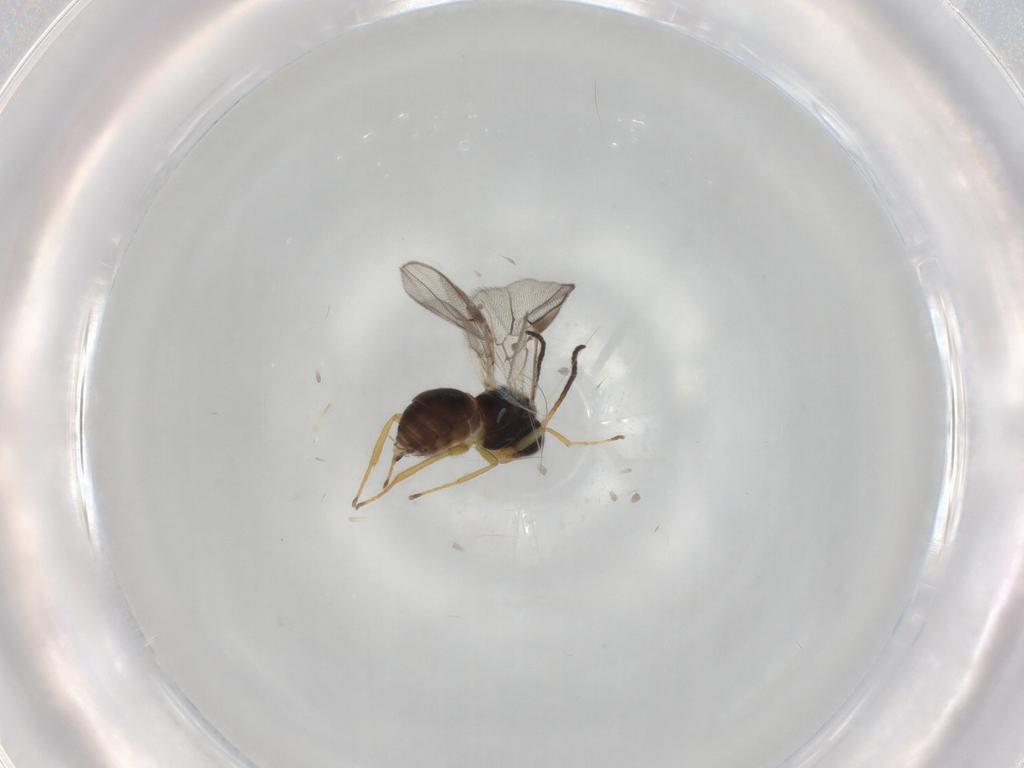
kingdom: Animalia
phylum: Arthropoda
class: Insecta
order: Hymenoptera
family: Braconidae
